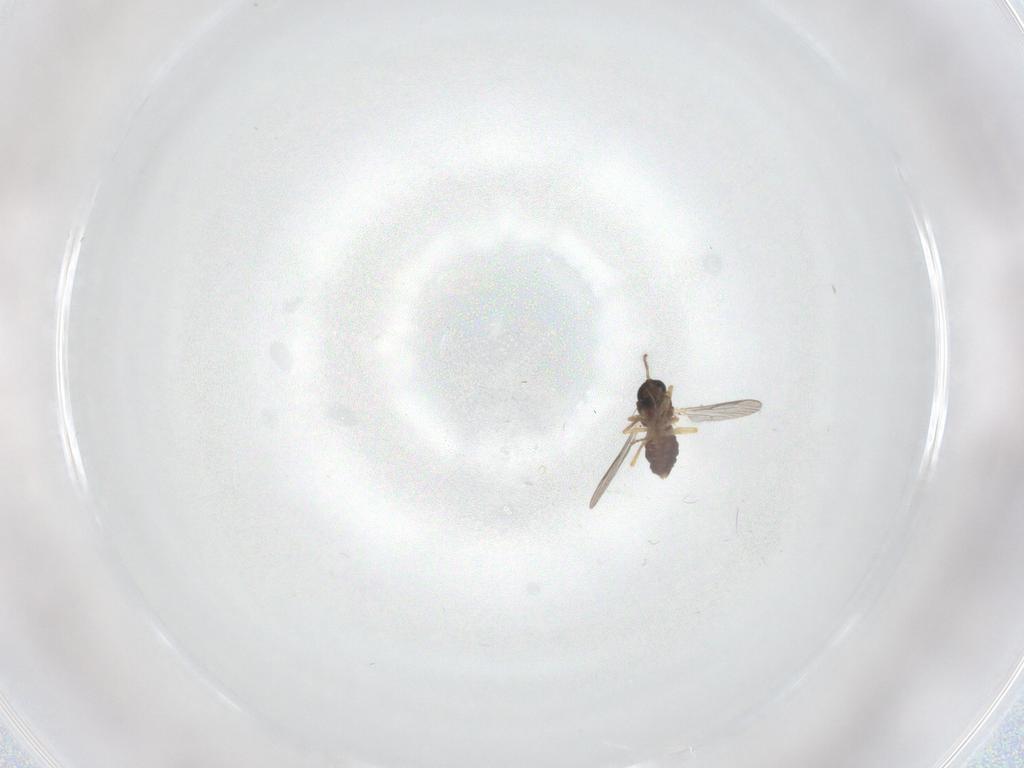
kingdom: Animalia
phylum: Arthropoda
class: Insecta
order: Diptera
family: Ceratopogonidae
